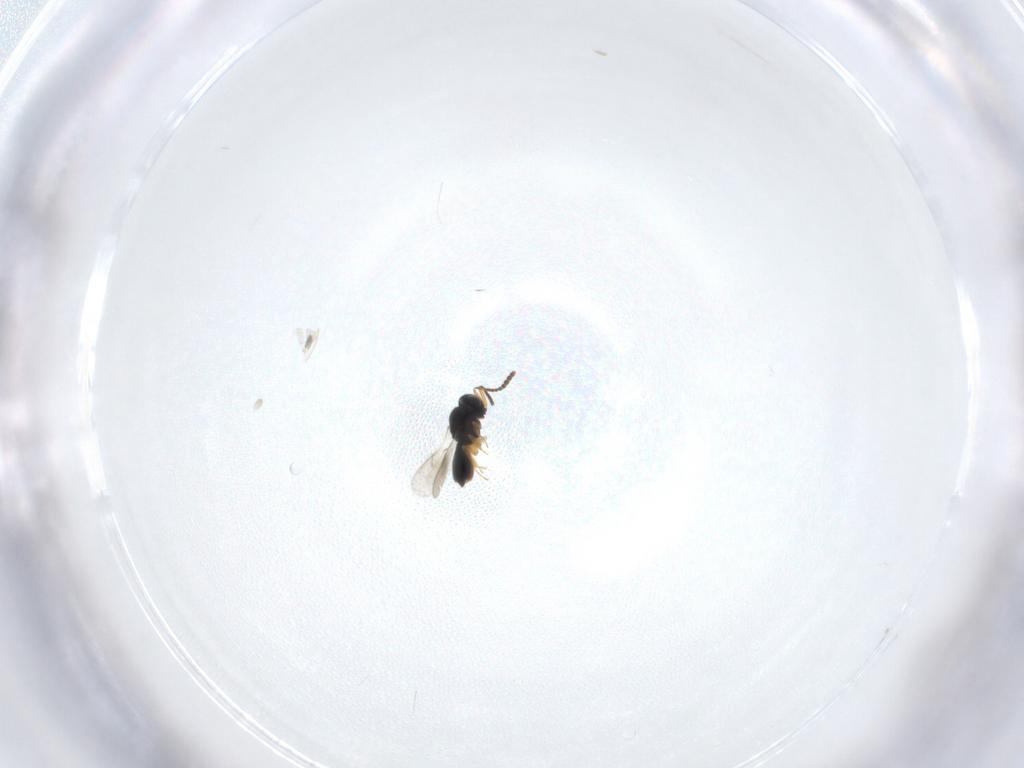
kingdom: Animalia
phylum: Arthropoda
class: Insecta
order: Hymenoptera
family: Scelionidae
